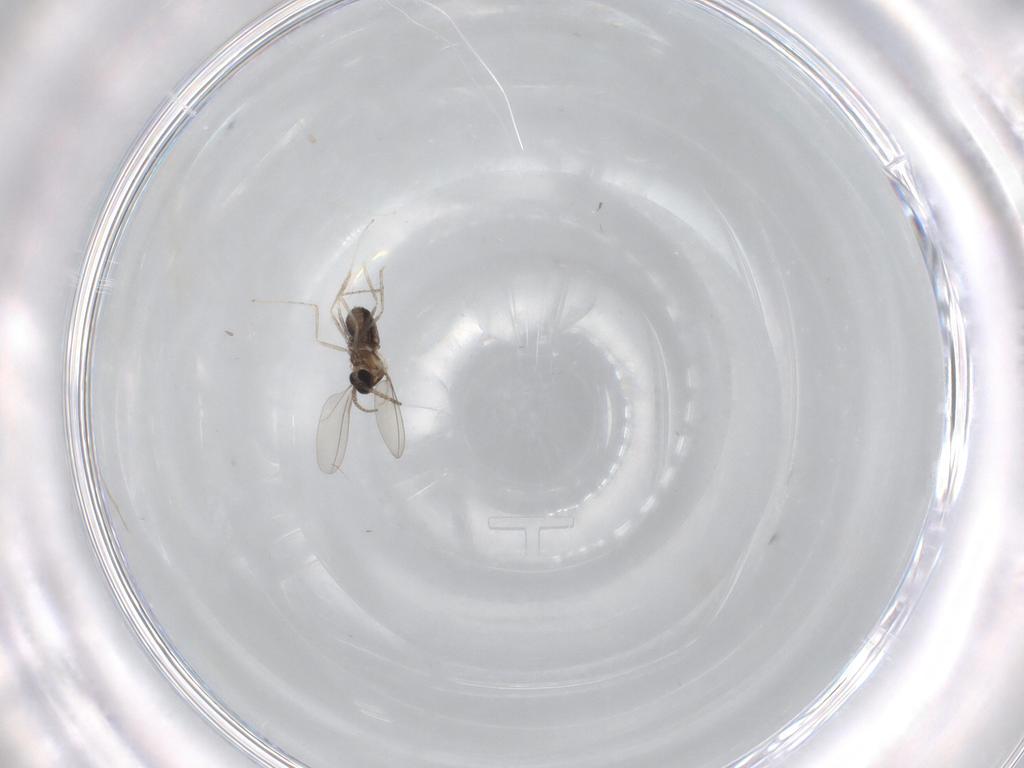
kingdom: Animalia
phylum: Arthropoda
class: Insecta
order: Diptera
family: Cecidomyiidae
